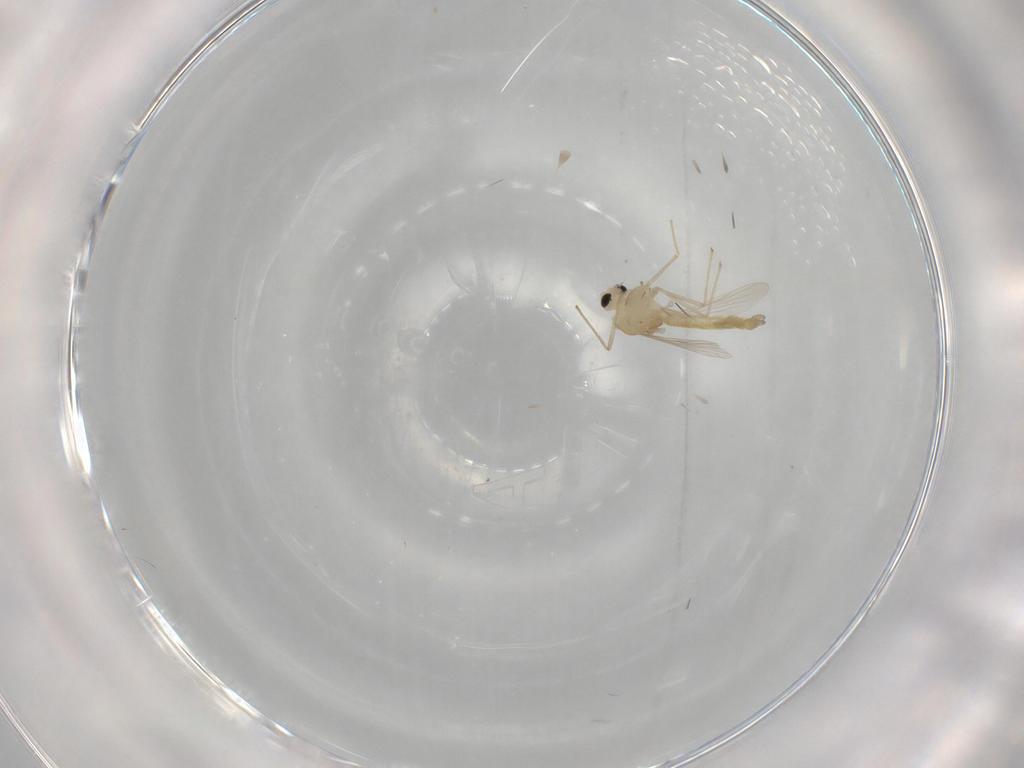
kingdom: Animalia
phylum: Arthropoda
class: Insecta
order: Diptera
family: Cecidomyiidae
